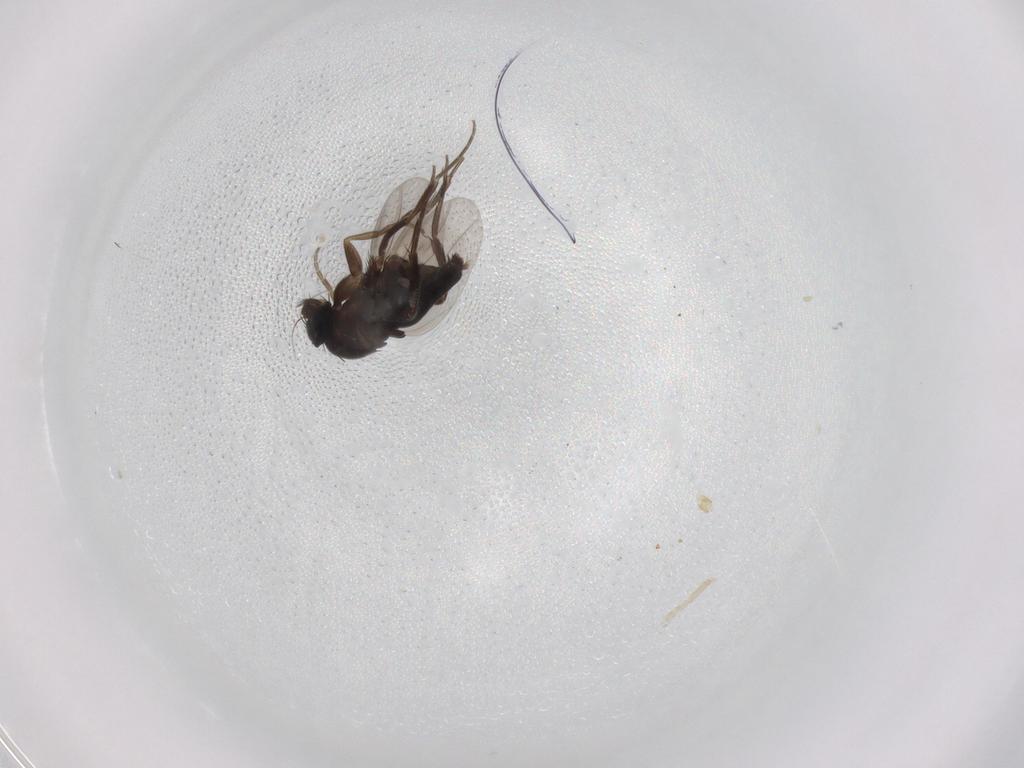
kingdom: Animalia
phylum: Arthropoda
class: Insecta
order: Diptera
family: Phoridae
